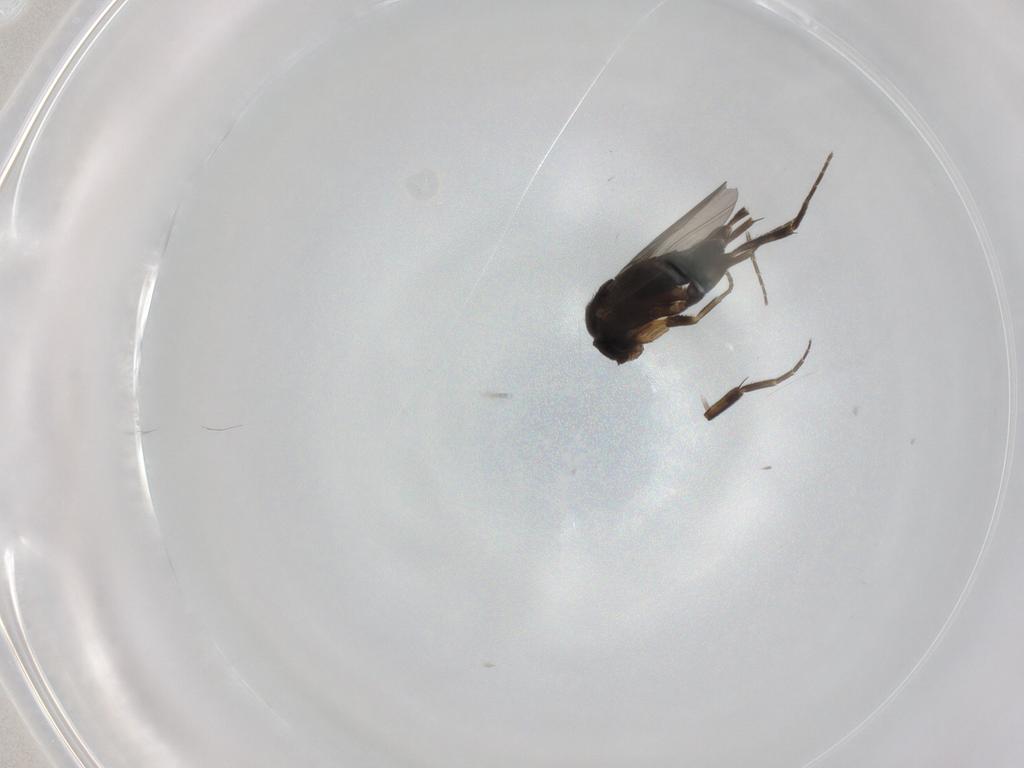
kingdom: Animalia
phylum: Arthropoda
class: Insecta
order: Diptera
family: Phoridae
